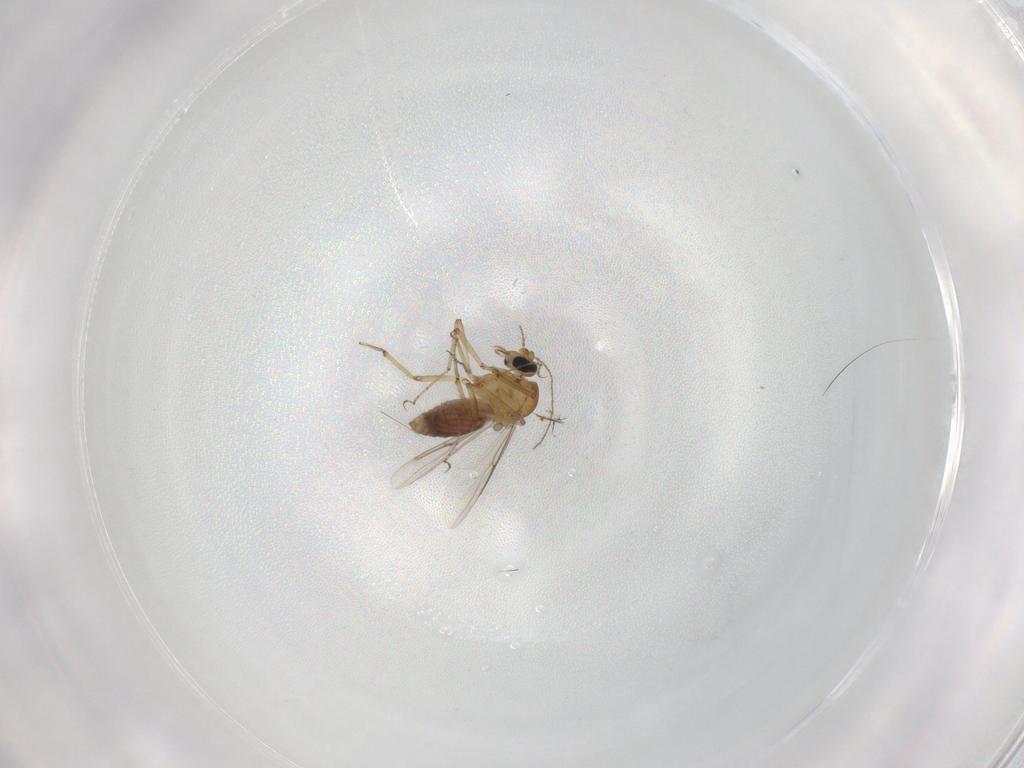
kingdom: Animalia
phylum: Arthropoda
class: Insecta
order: Diptera
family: Ceratopogonidae
